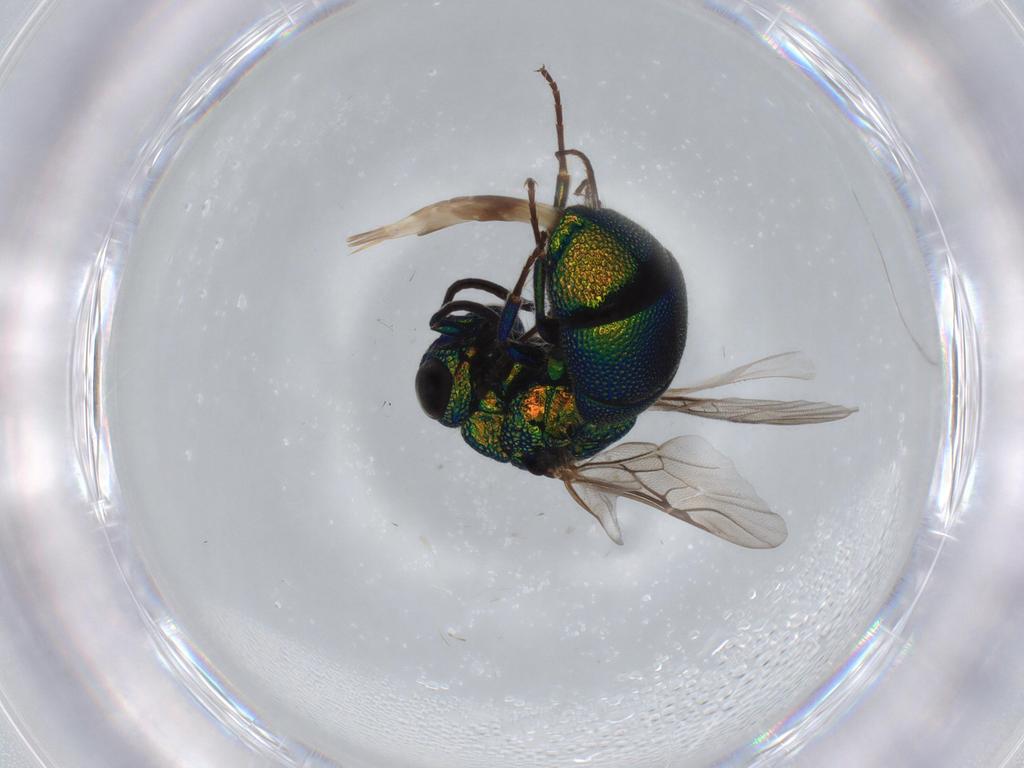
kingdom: Animalia
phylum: Arthropoda
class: Insecta
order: Hymenoptera
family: Chrysididae
